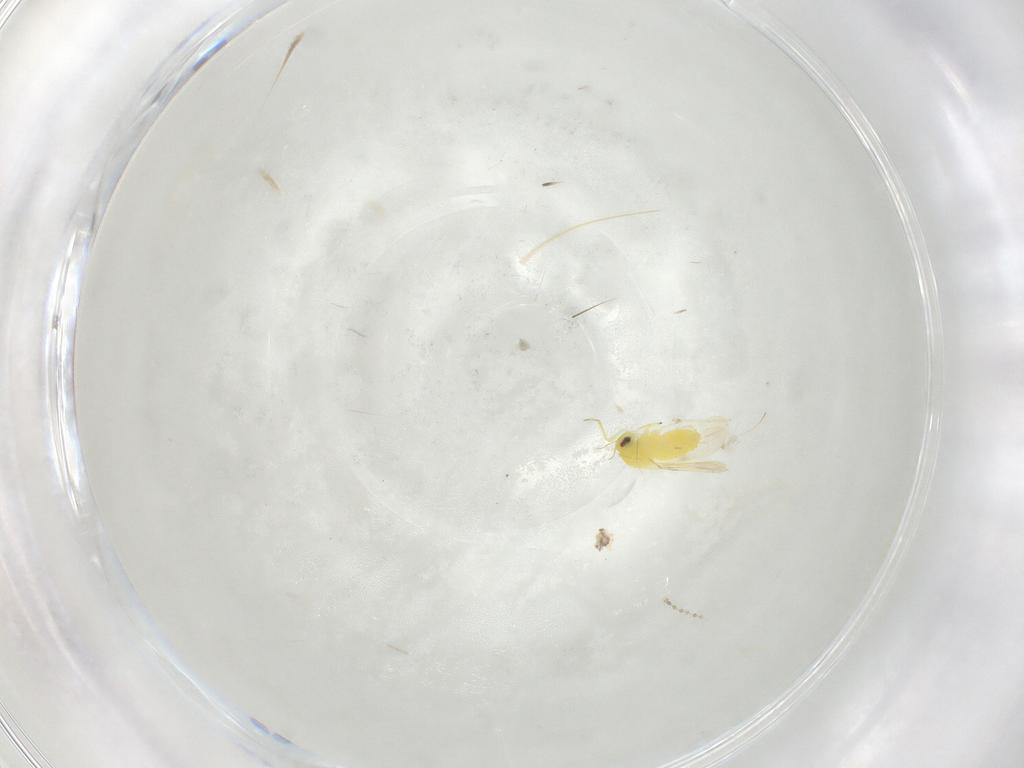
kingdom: Animalia
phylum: Arthropoda
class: Insecta
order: Hemiptera
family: Aleyrodidae
